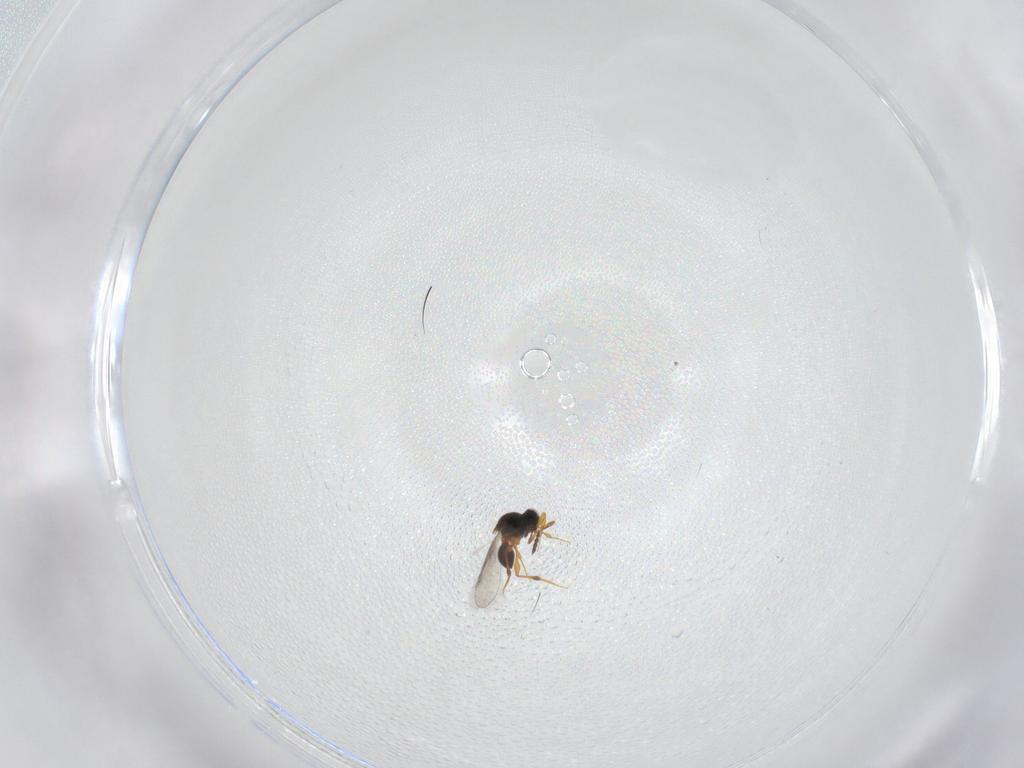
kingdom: Animalia
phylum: Arthropoda
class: Insecta
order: Hymenoptera
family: Platygastridae
